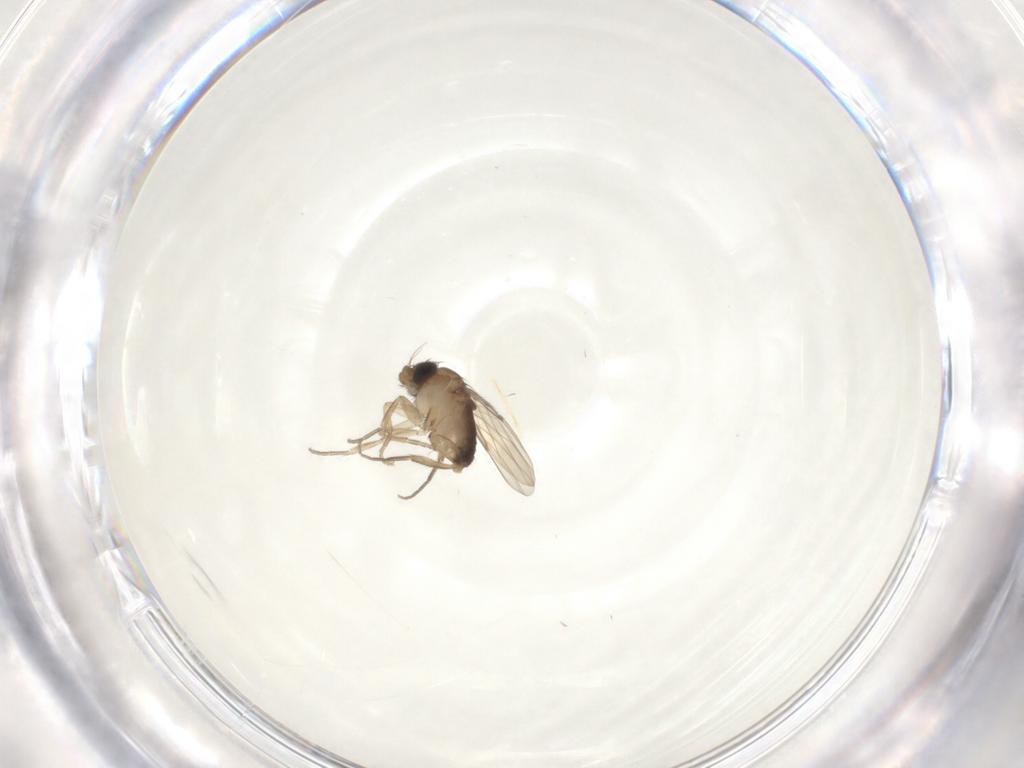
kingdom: Animalia
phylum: Arthropoda
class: Insecta
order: Diptera
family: Phoridae
